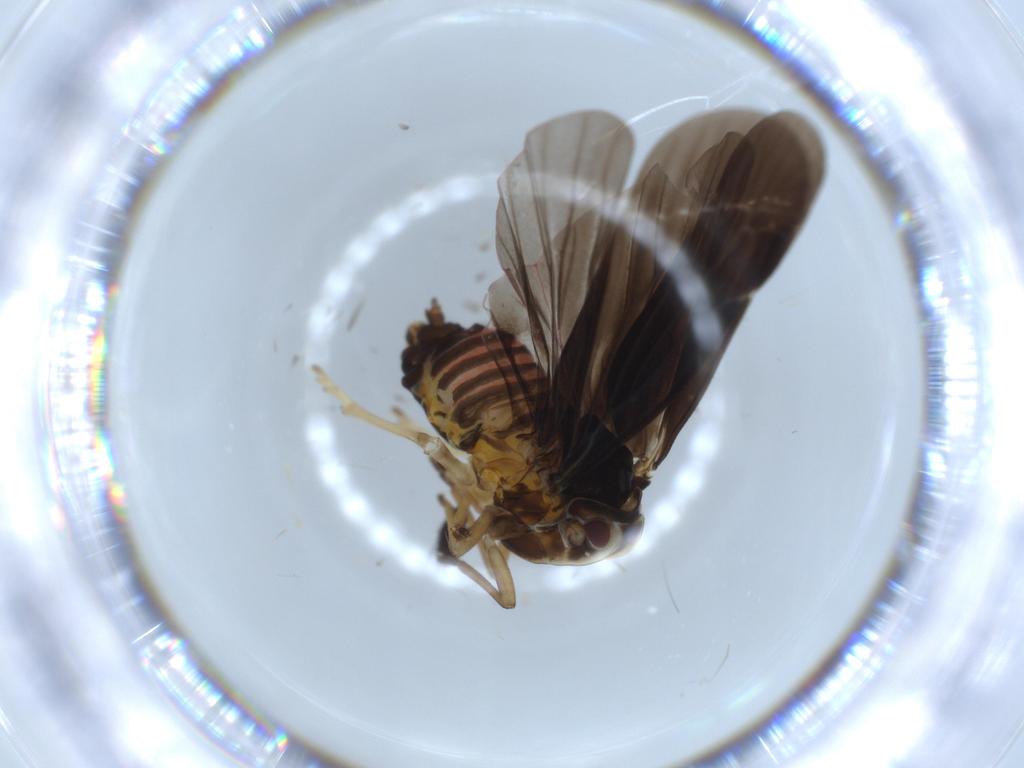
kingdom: Animalia
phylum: Arthropoda
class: Insecta
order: Hemiptera
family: Derbidae
